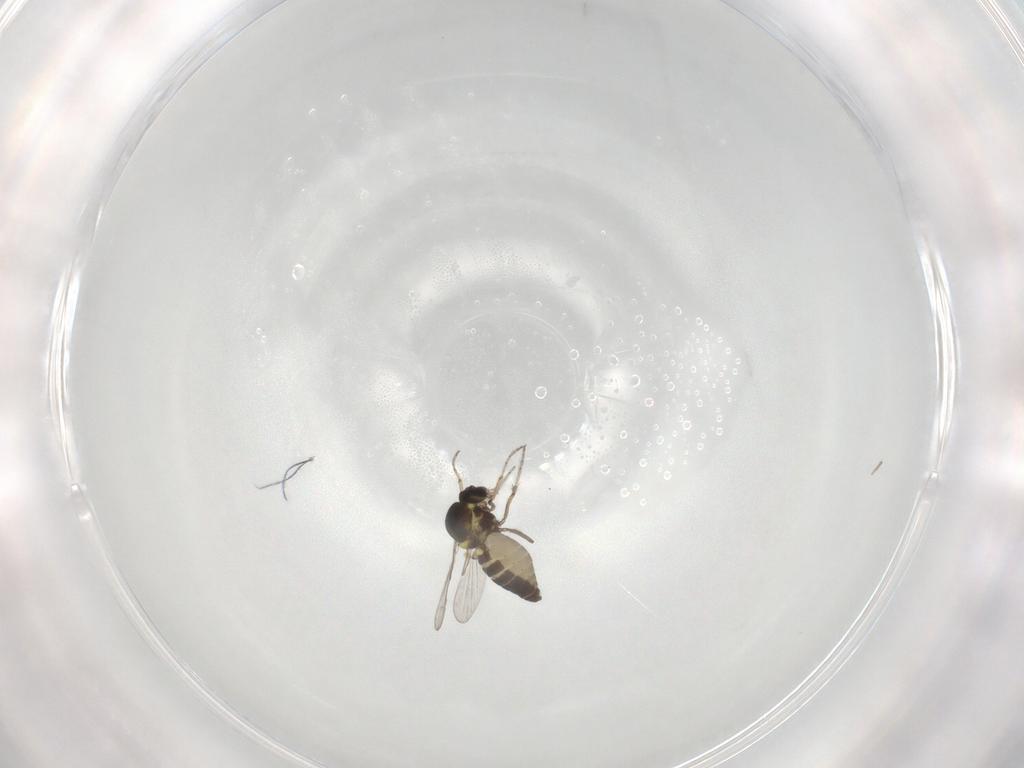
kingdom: Animalia
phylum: Arthropoda
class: Insecta
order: Diptera
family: Ceratopogonidae
